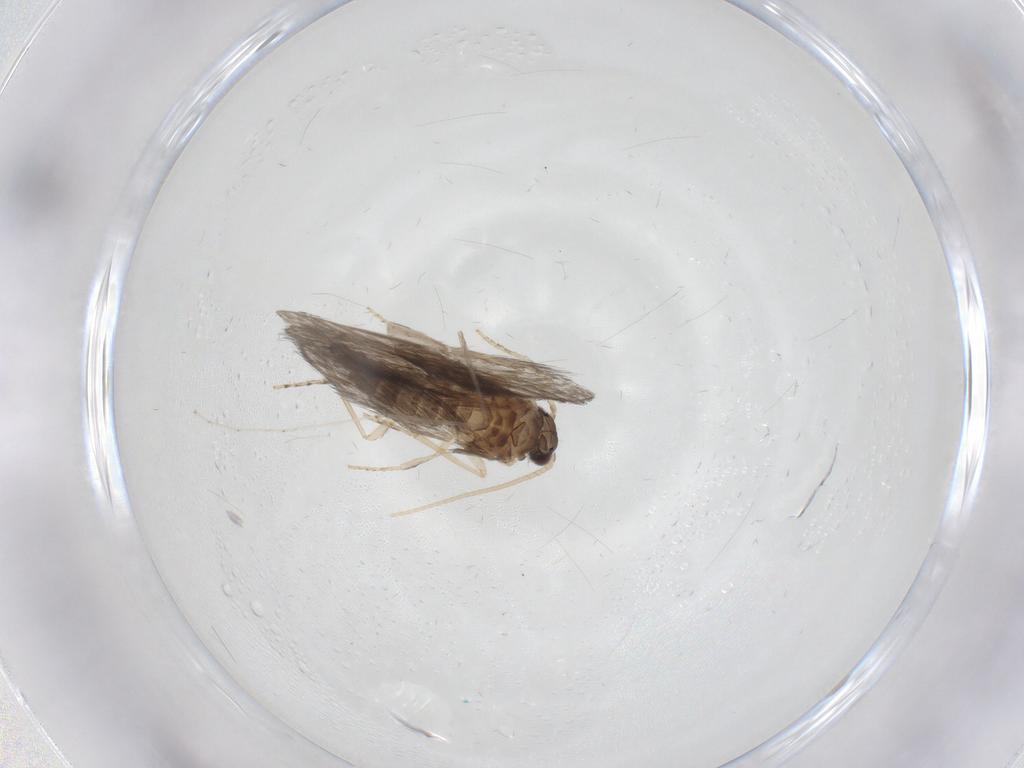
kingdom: Animalia
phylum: Arthropoda
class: Insecta
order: Trichoptera
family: Hydroptilidae
